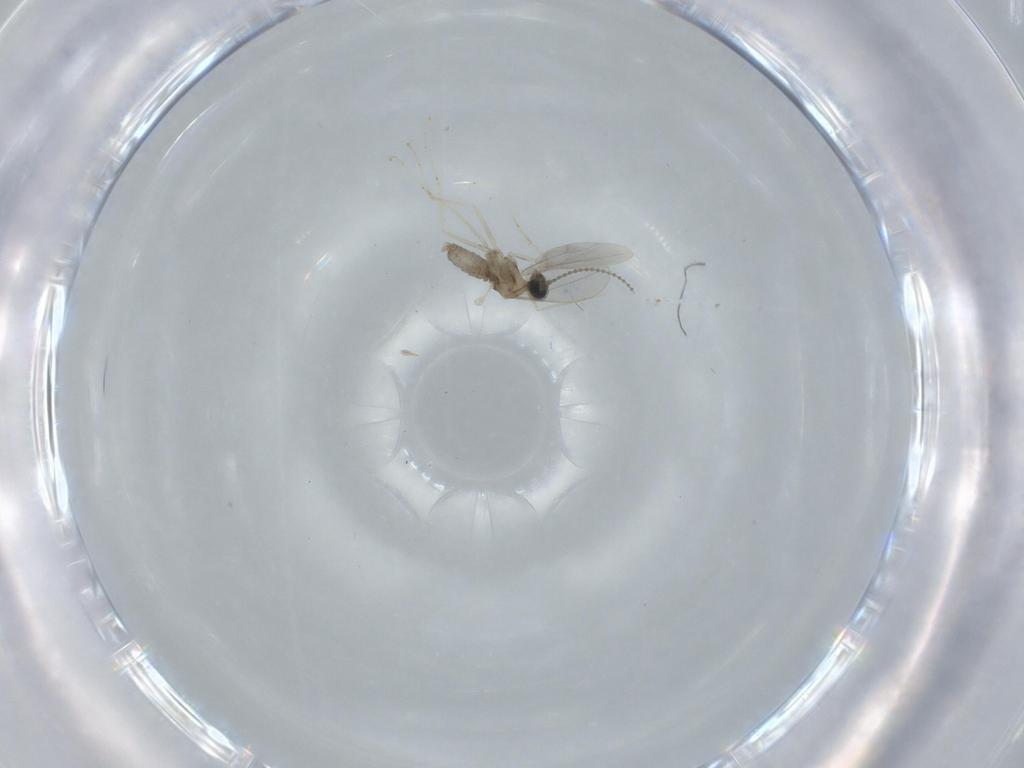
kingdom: Animalia
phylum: Arthropoda
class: Insecta
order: Diptera
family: Cecidomyiidae
